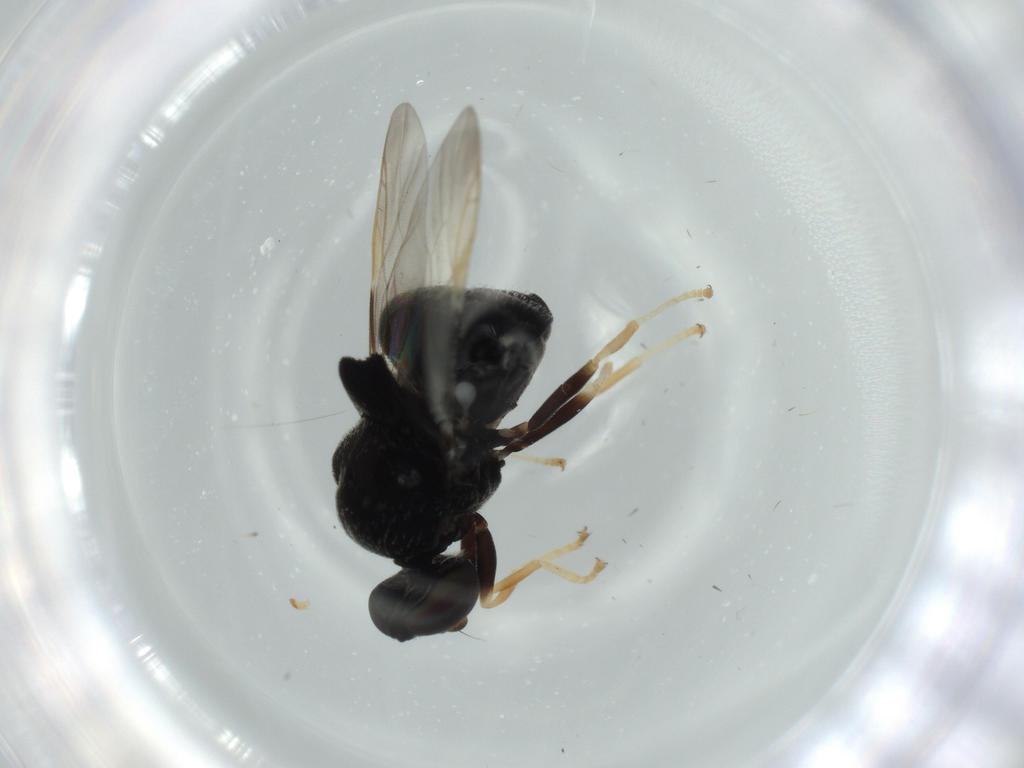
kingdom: Animalia
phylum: Arthropoda
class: Insecta
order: Diptera
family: Stratiomyidae
